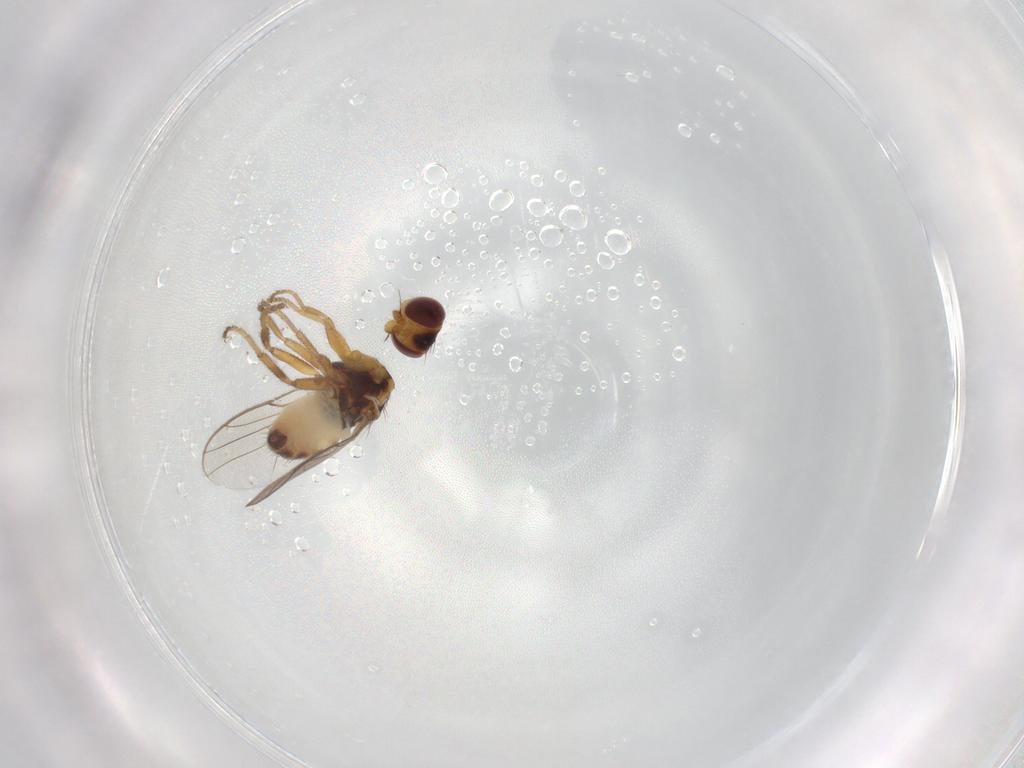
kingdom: Animalia
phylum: Arthropoda
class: Insecta
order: Diptera
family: Chloropidae
